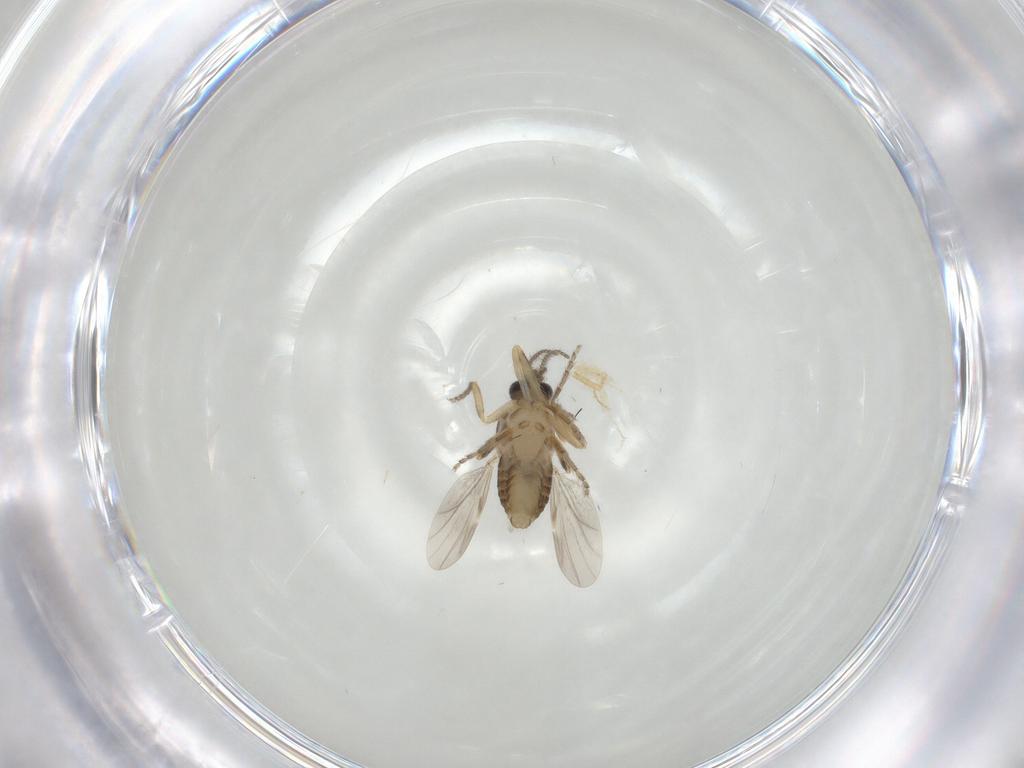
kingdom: Animalia
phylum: Arthropoda
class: Insecta
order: Diptera
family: Ceratopogonidae
